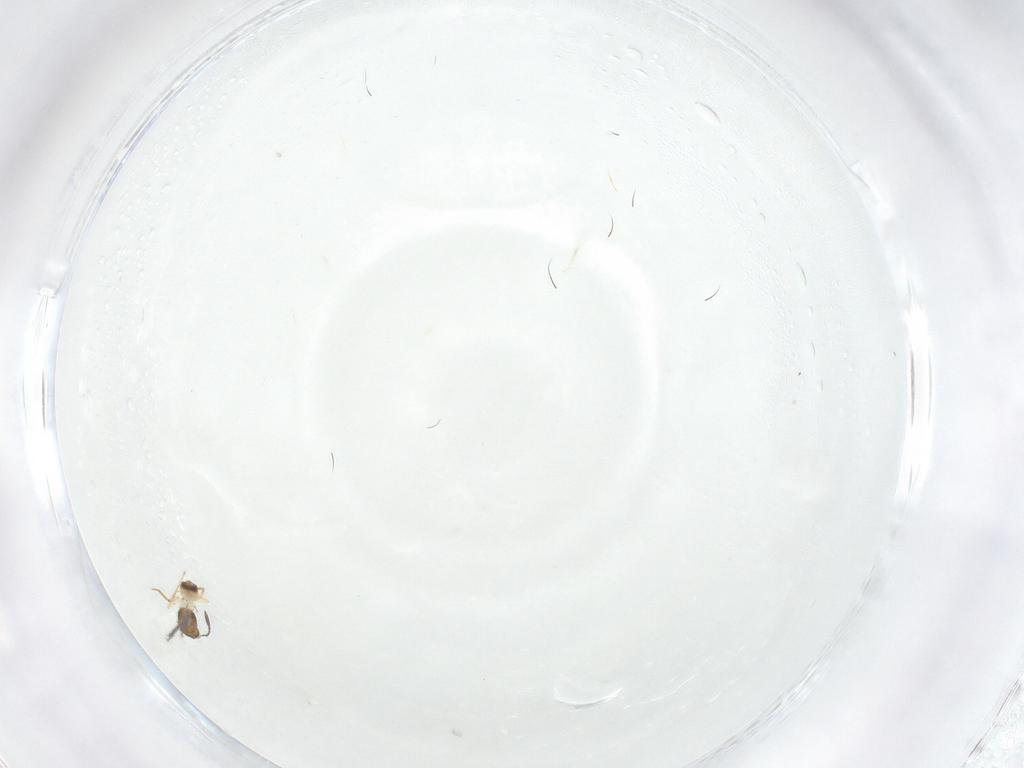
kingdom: Animalia
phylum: Arthropoda
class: Insecta
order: Hymenoptera
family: Mymaridae
